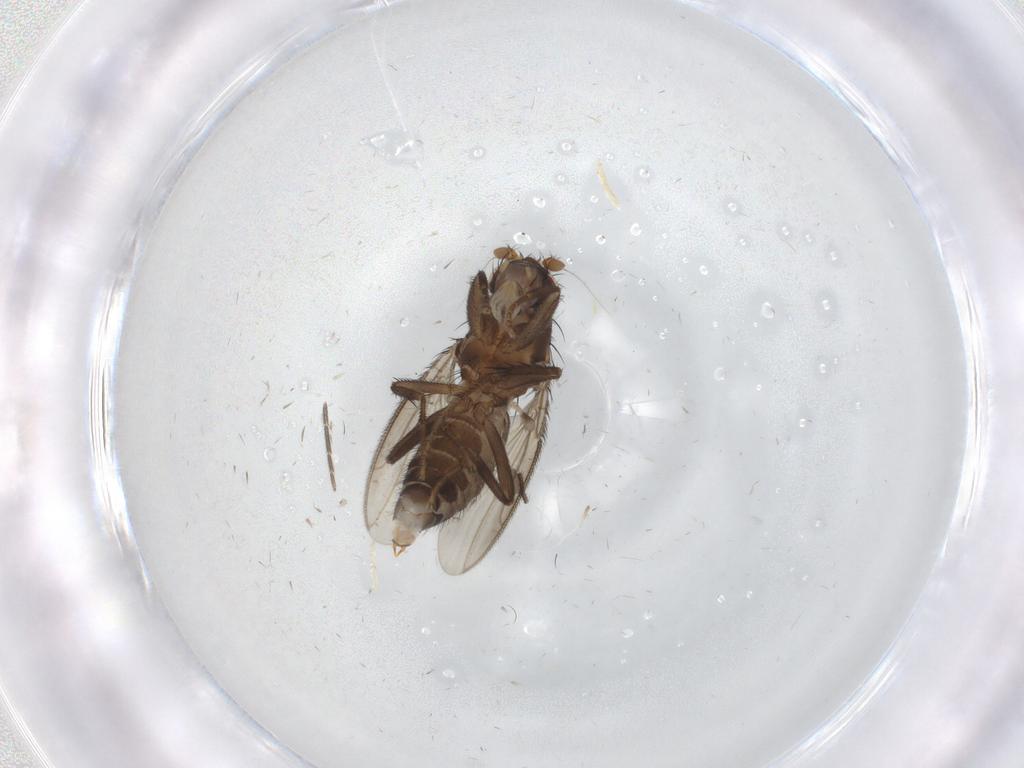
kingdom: Animalia
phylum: Arthropoda
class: Insecta
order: Diptera
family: Sphaeroceridae
